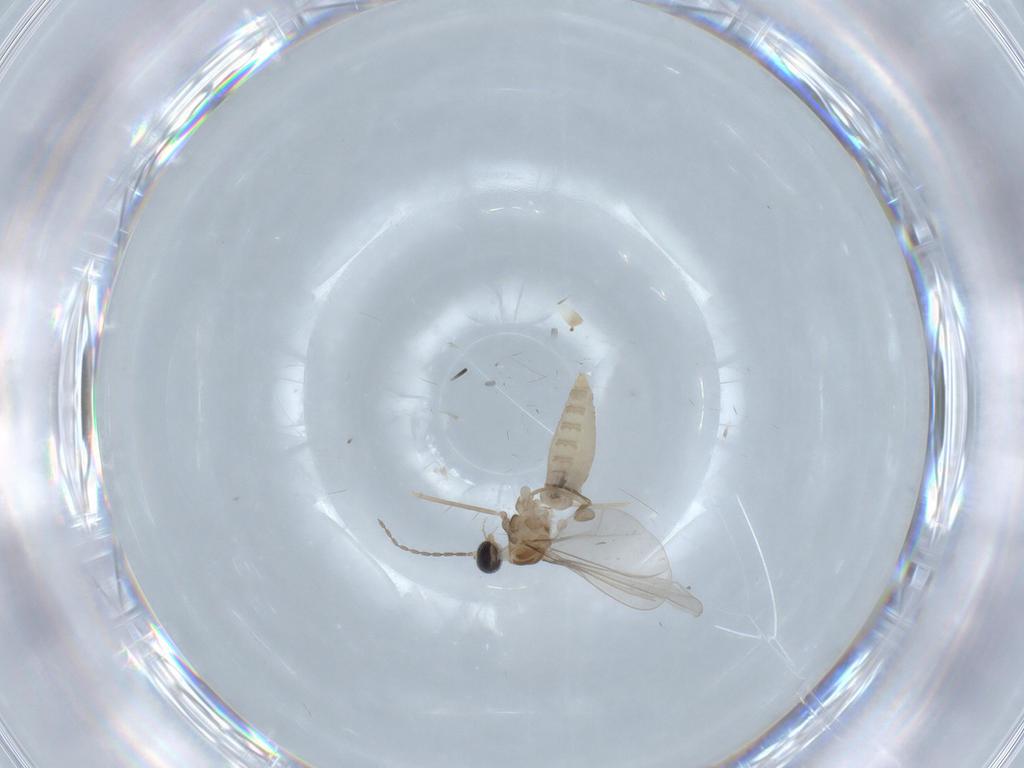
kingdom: Animalia
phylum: Arthropoda
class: Insecta
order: Diptera
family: Cecidomyiidae
